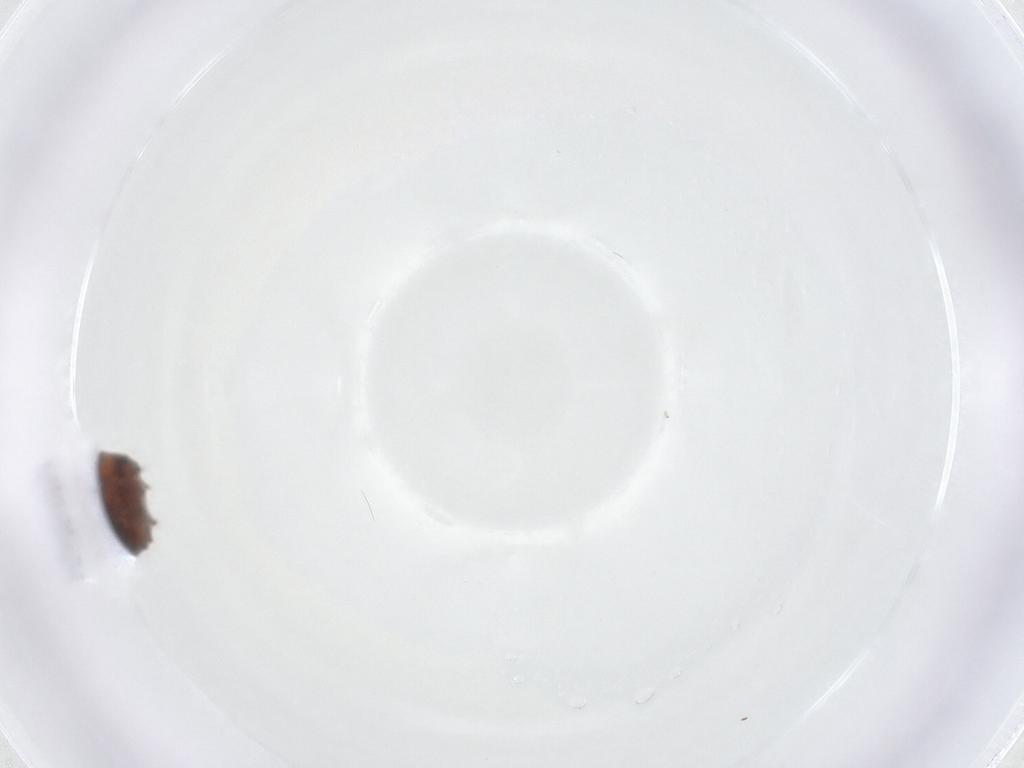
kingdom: Animalia
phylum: Arthropoda
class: Insecta
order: Diptera
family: Chironomidae
